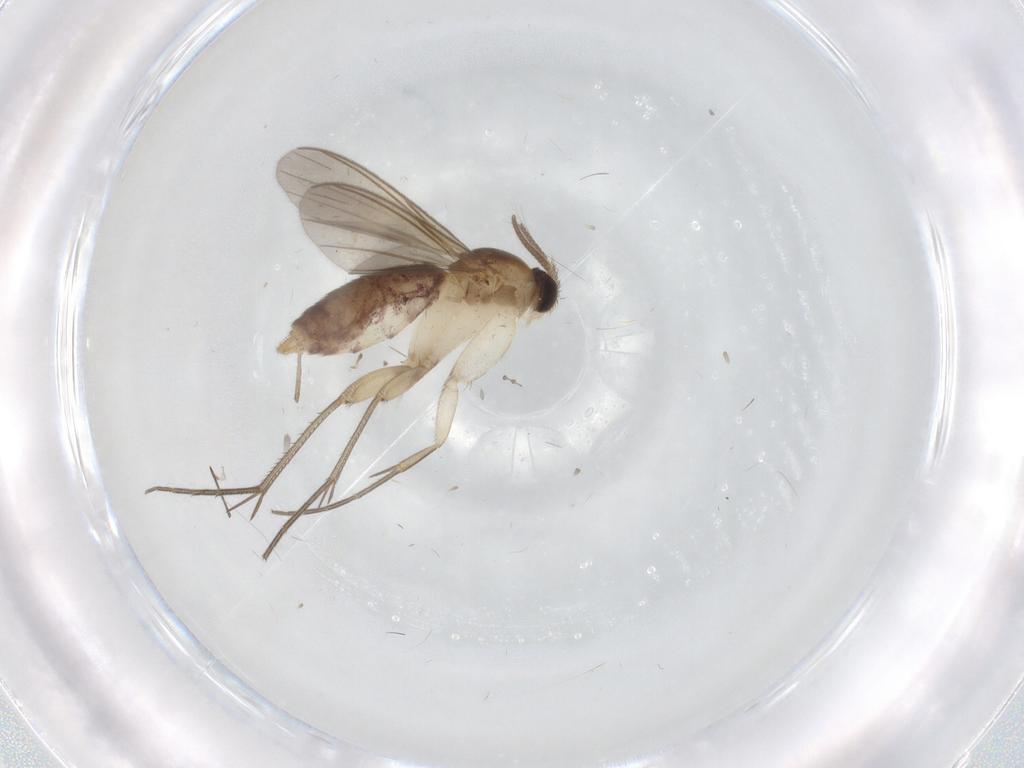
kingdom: Animalia
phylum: Arthropoda
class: Insecta
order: Diptera
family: Mycetophilidae
